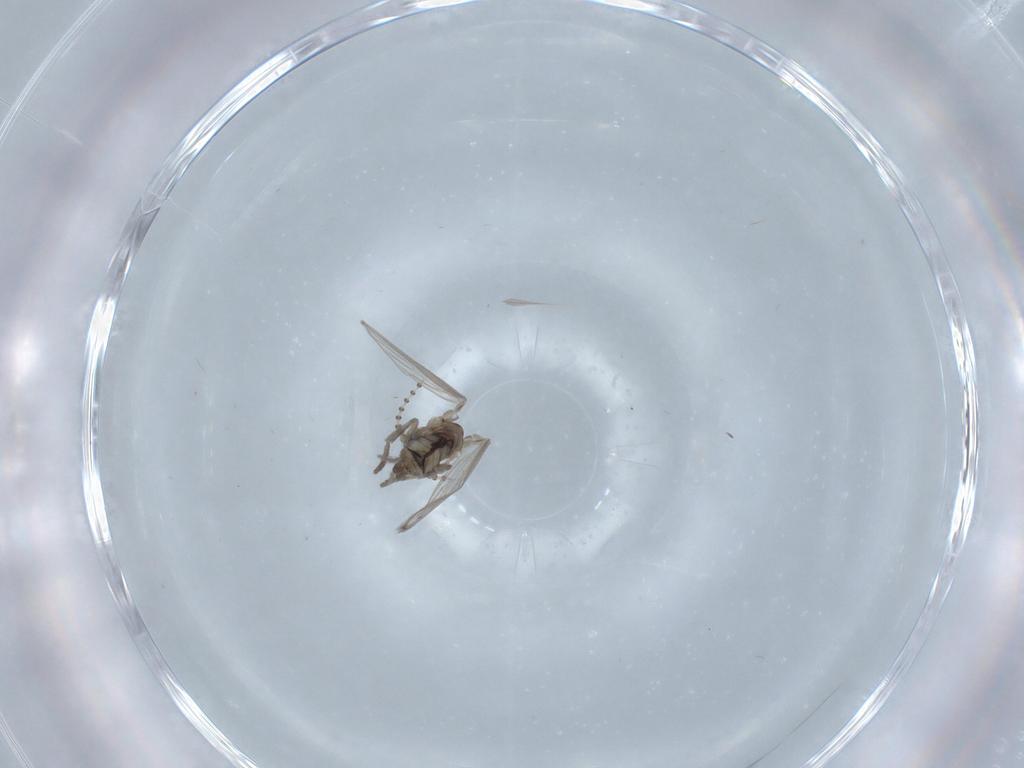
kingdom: Animalia
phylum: Arthropoda
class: Insecta
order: Diptera
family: Psychodidae
